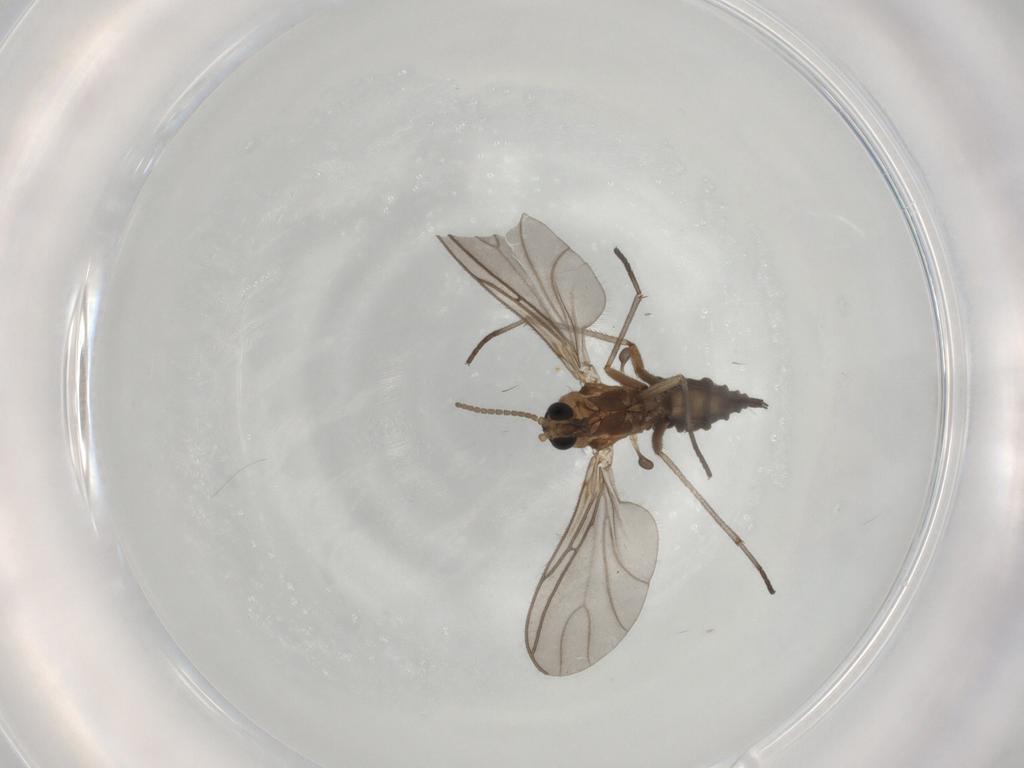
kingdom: Animalia
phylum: Arthropoda
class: Insecta
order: Diptera
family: Sciaridae
